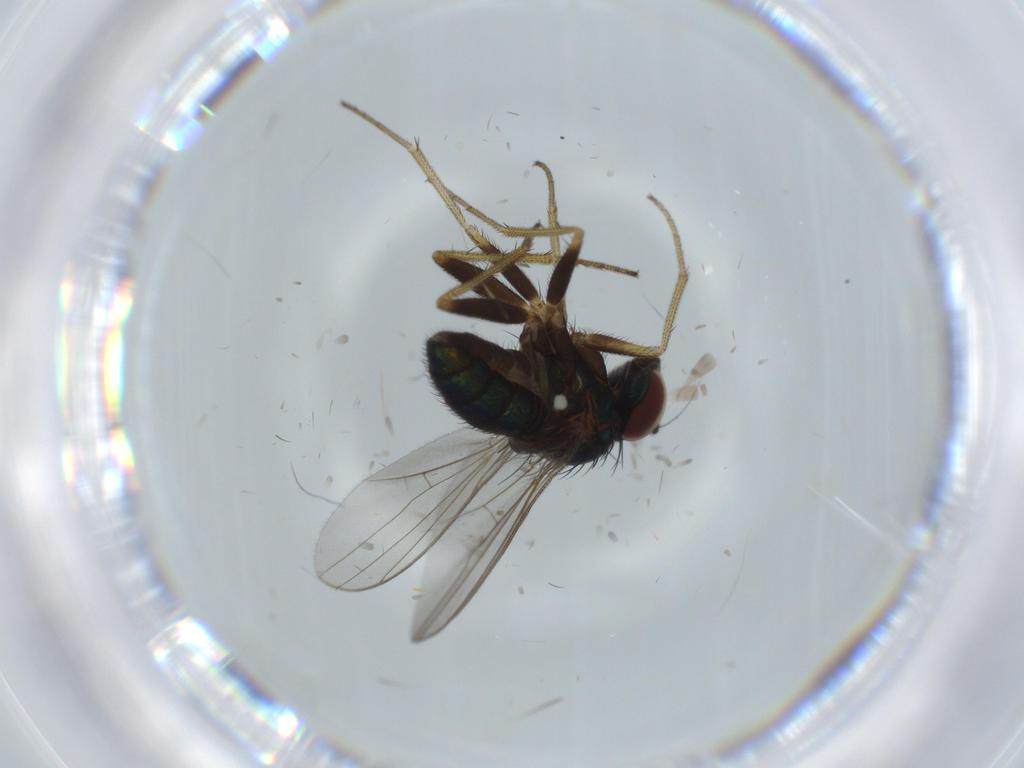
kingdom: Animalia
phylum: Arthropoda
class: Insecta
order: Diptera
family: Dolichopodidae
